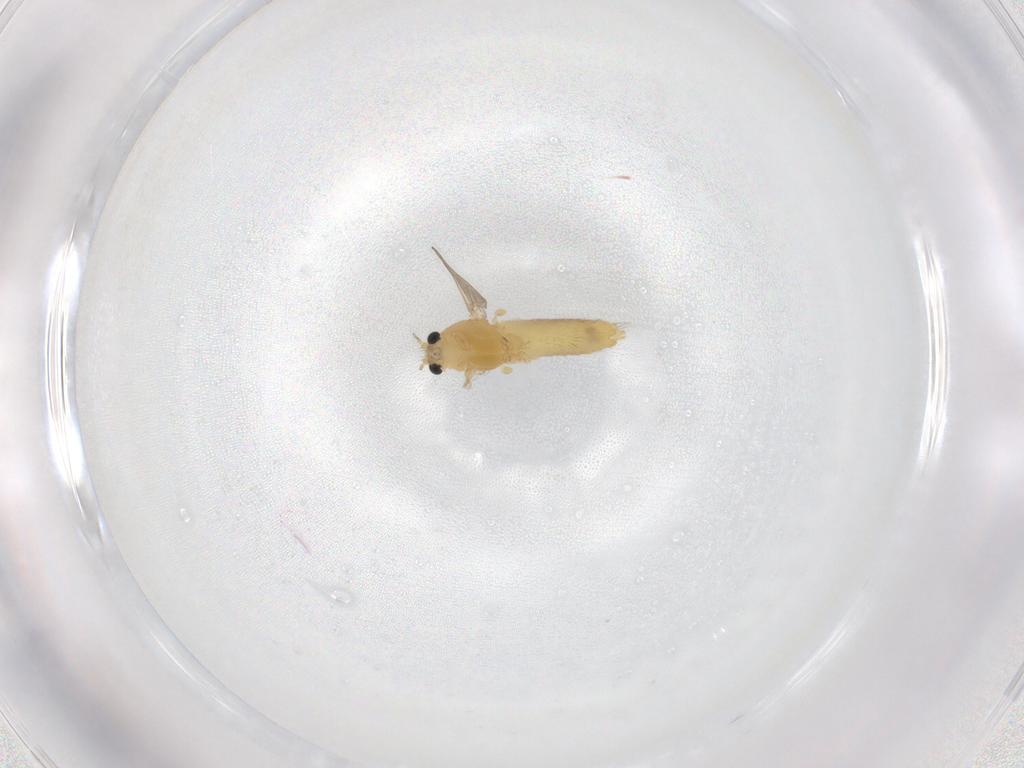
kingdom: Animalia
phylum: Arthropoda
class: Insecta
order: Diptera
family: Chironomidae
